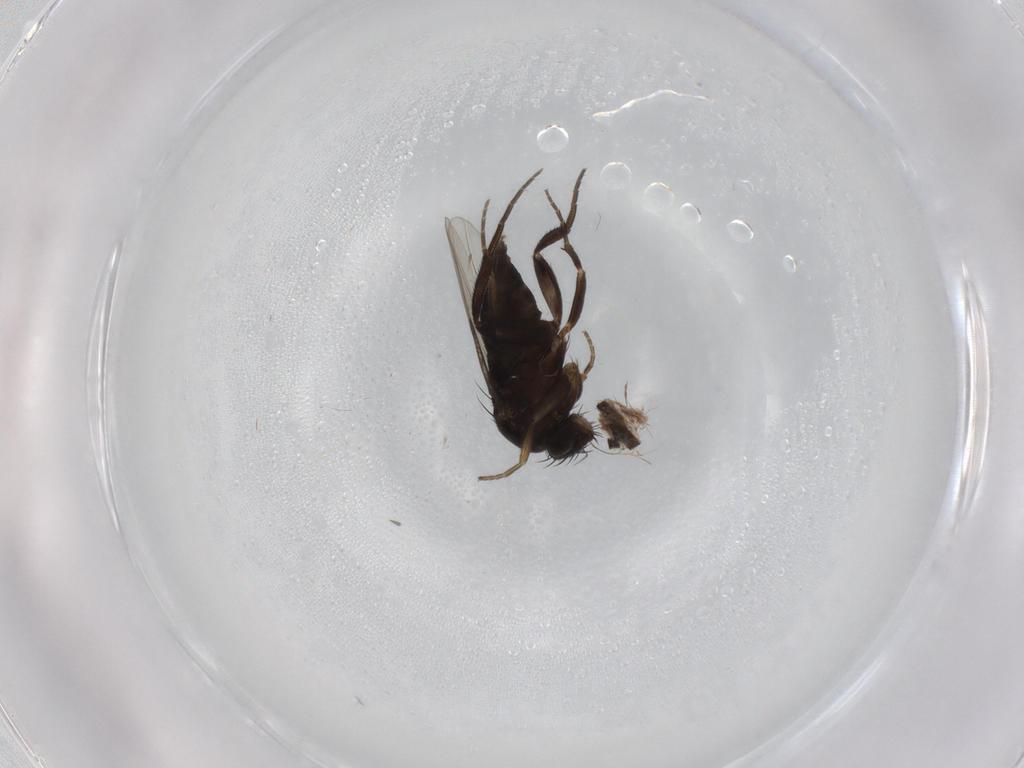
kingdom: Animalia
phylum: Arthropoda
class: Insecta
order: Diptera
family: Phoridae
